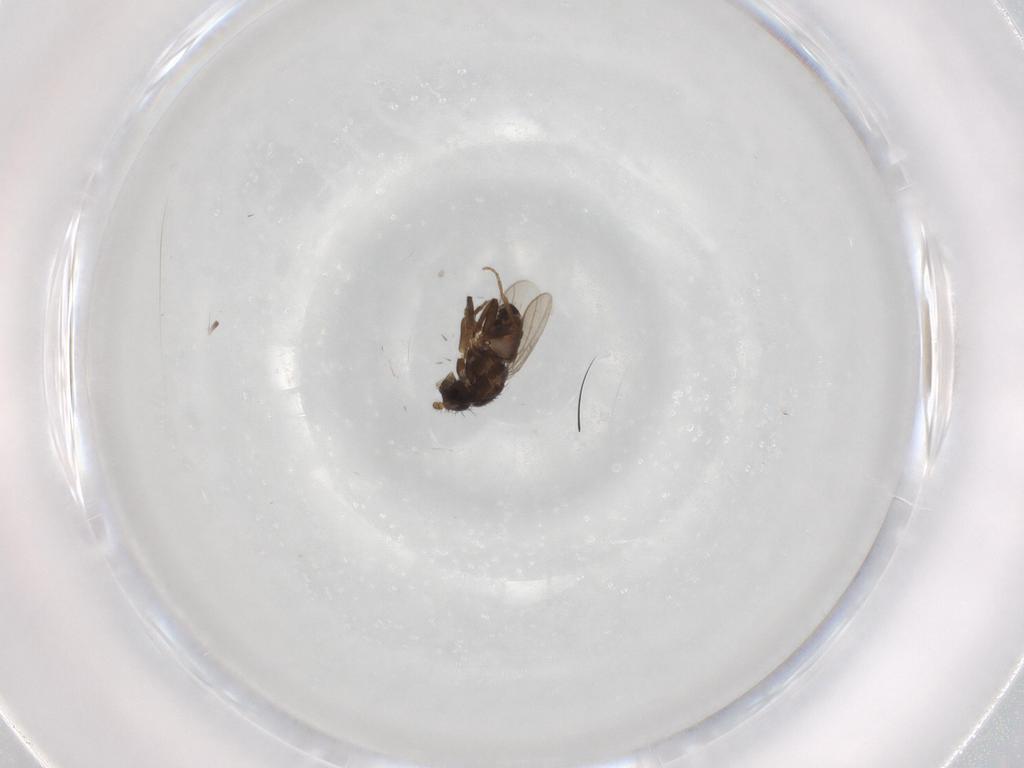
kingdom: Animalia
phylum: Arthropoda
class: Insecta
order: Diptera
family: Sphaeroceridae
